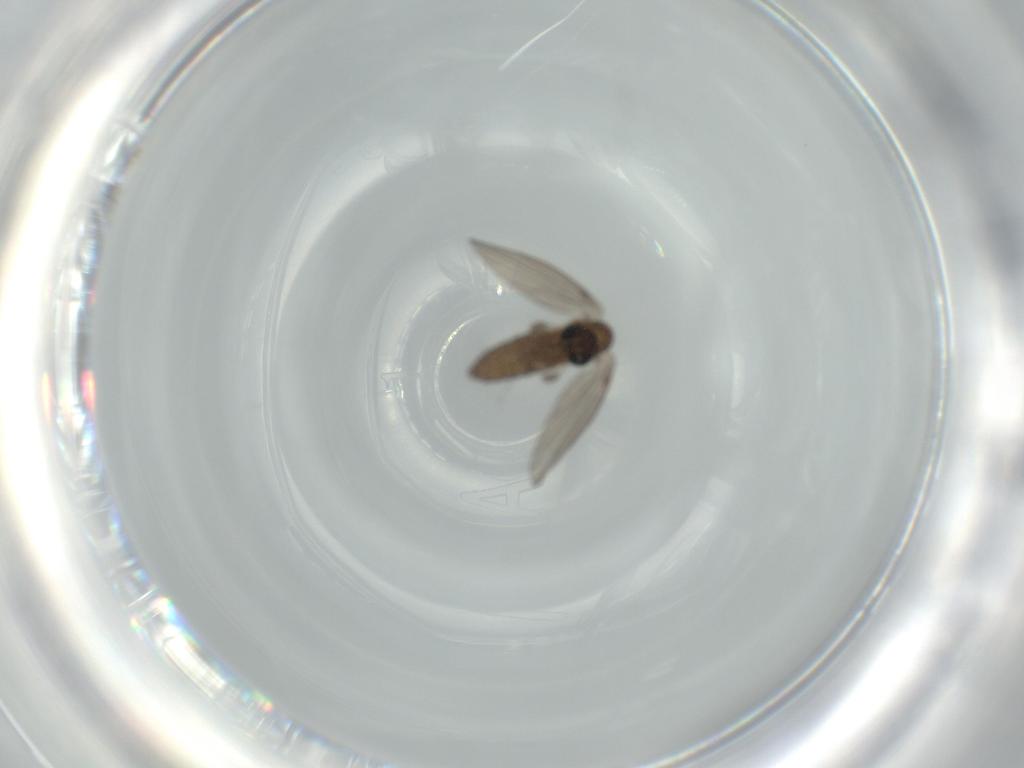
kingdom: Animalia
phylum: Arthropoda
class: Insecta
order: Diptera
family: Psychodidae
